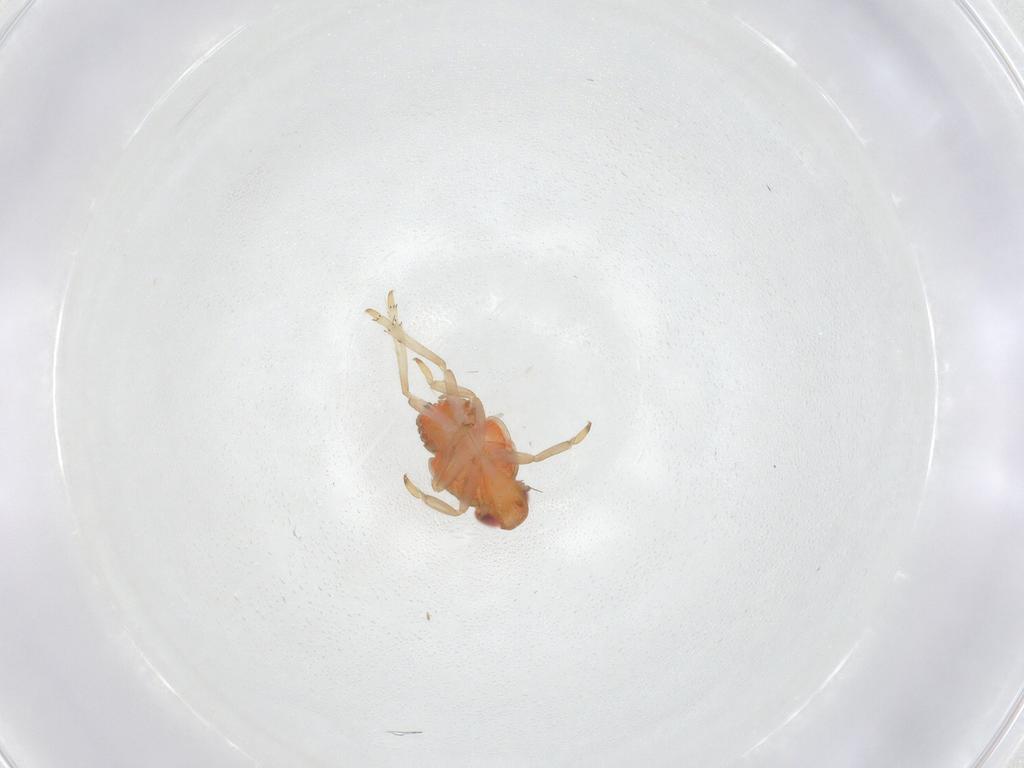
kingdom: Animalia
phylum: Arthropoda
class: Insecta
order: Hemiptera
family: Fulgoroidea_incertae_sedis
